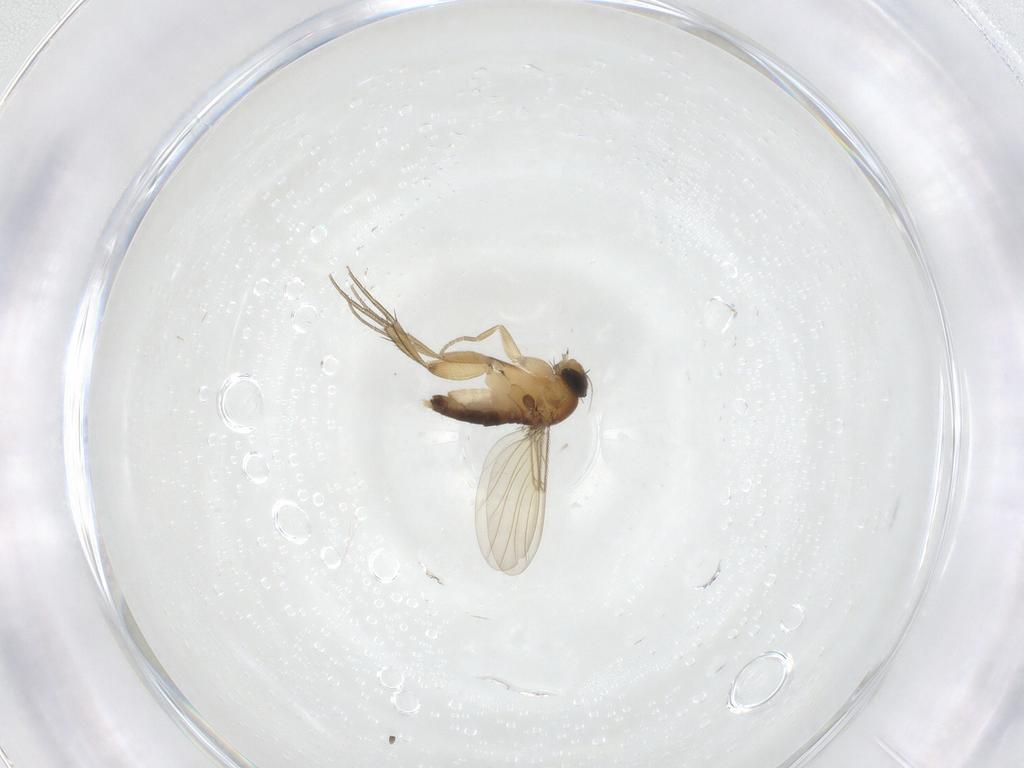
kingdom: Animalia
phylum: Arthropoda
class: Insecta
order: Diptera
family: Phoridae
